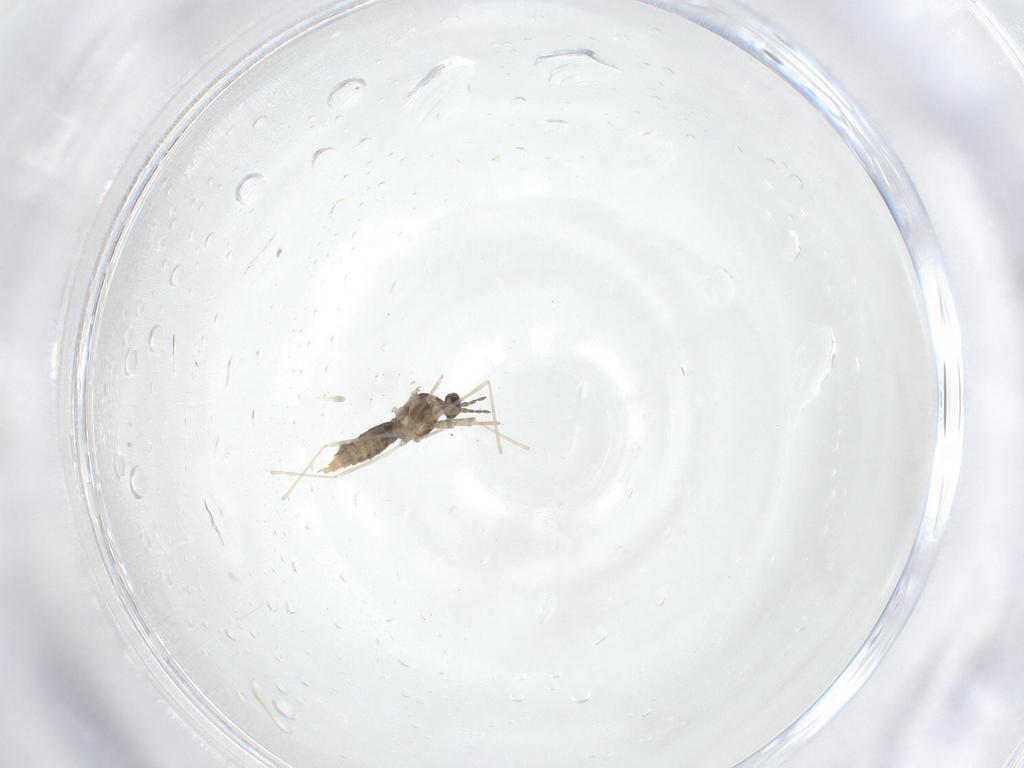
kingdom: Animalia
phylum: Arthropoda
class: Insecta
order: Diptera
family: Cecidomyiidae
